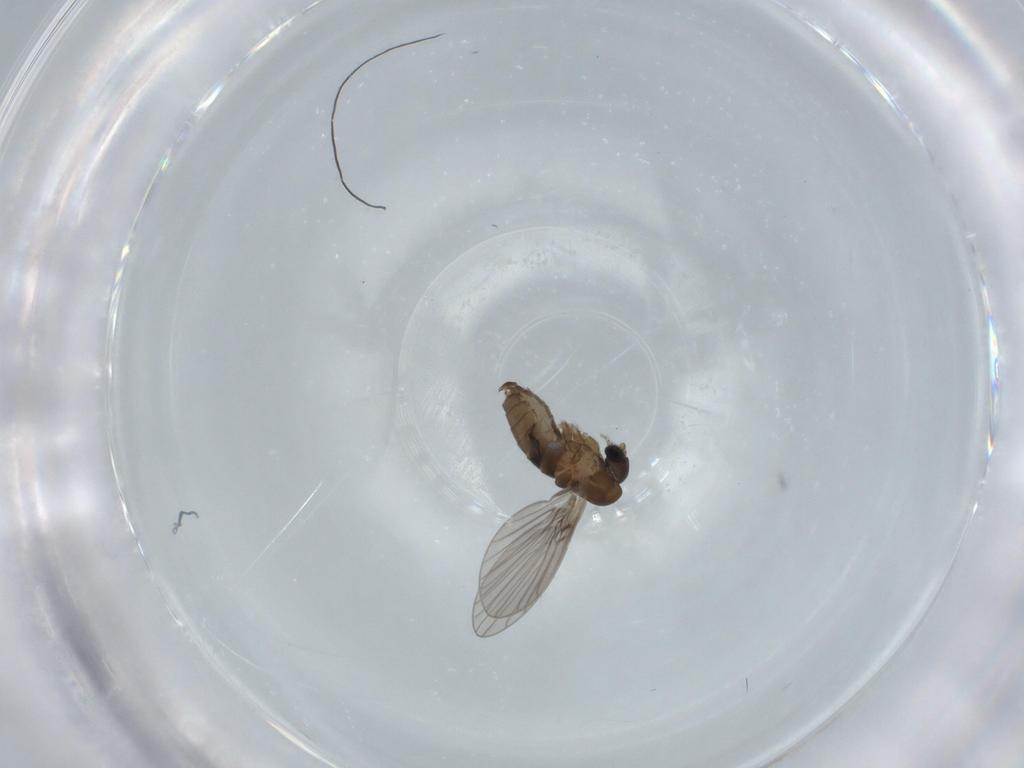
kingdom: Animalia
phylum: Arthropoda
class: Insecta
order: Diptera
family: Psychodidae
